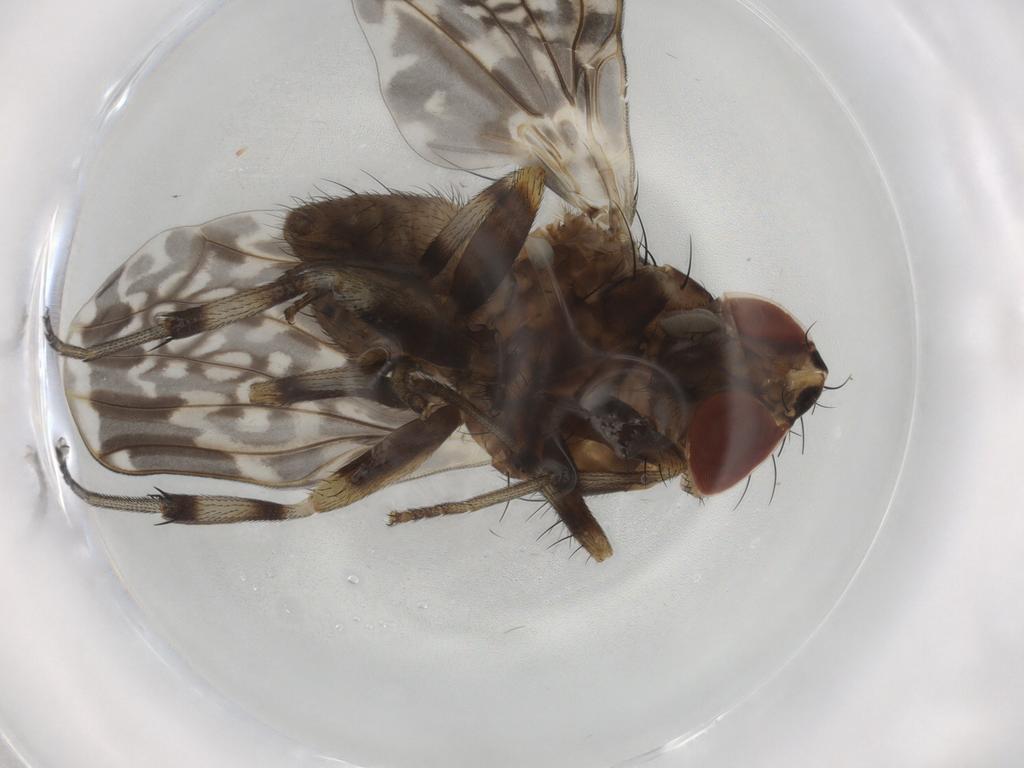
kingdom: Animalia
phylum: Arthropoda
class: Insecta
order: Diptera
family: Lauxaniidae
